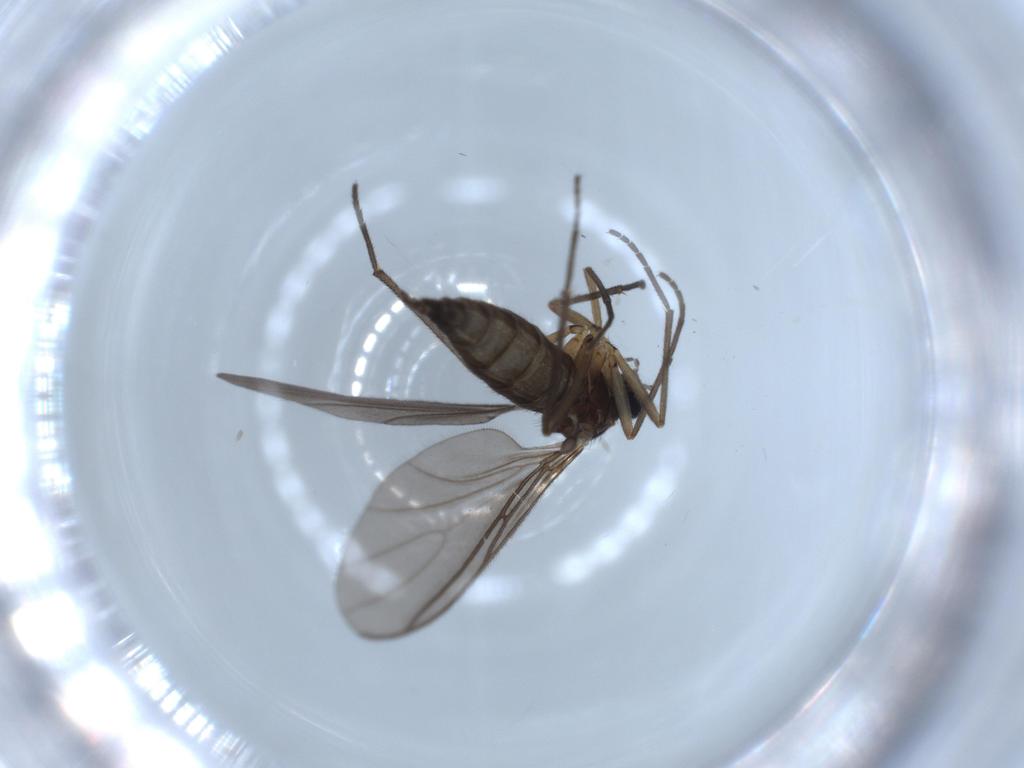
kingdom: Animalia
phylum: Arthropoda
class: Insecta
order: Diptera
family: Sciaridae
